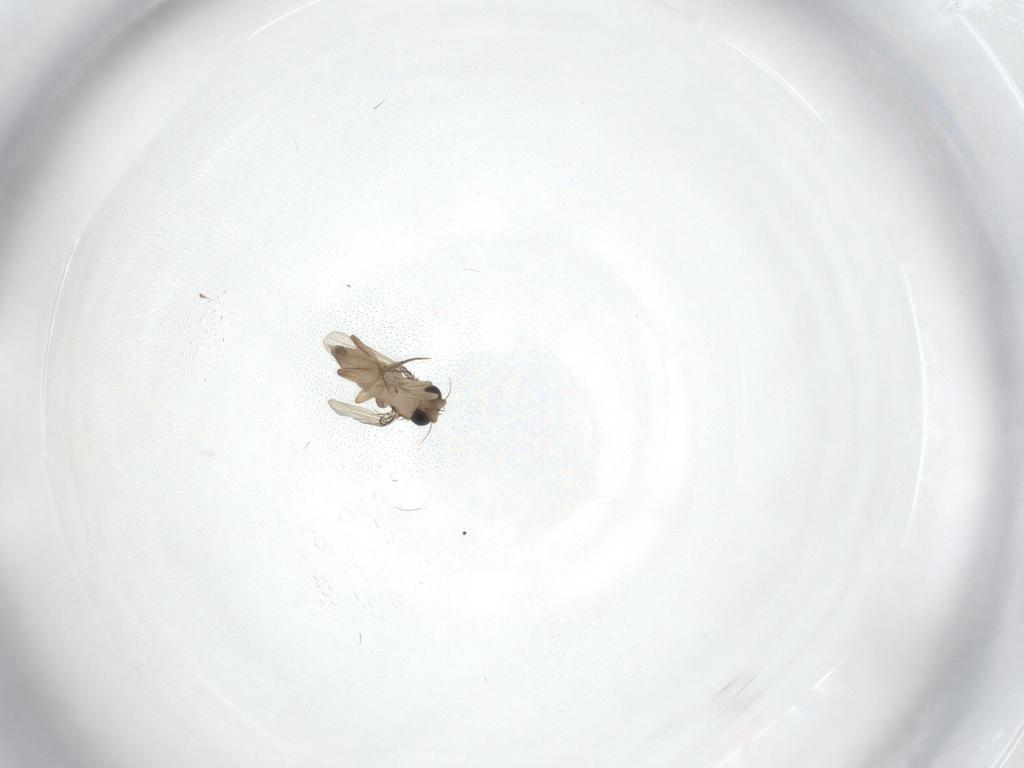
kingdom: Animalia
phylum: Arthropoda
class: Insecta
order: Diptera
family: Phoridae
